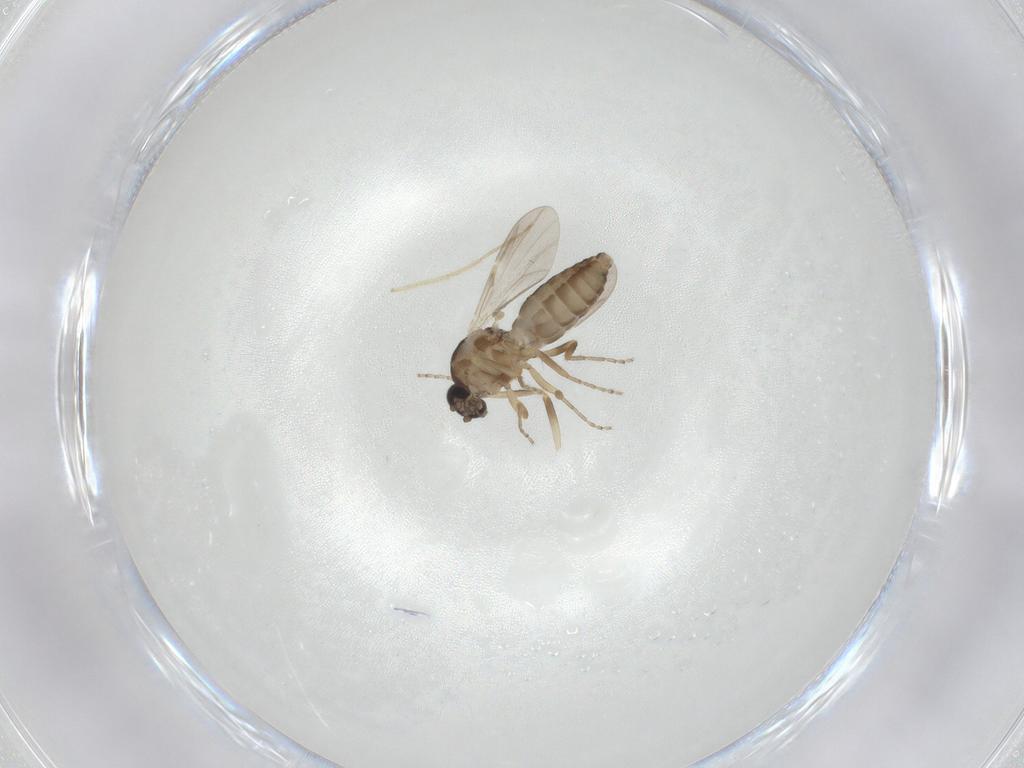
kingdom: Animalia
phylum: Arthropoda
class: Insecta
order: Diptera
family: Ceratopogonidae
